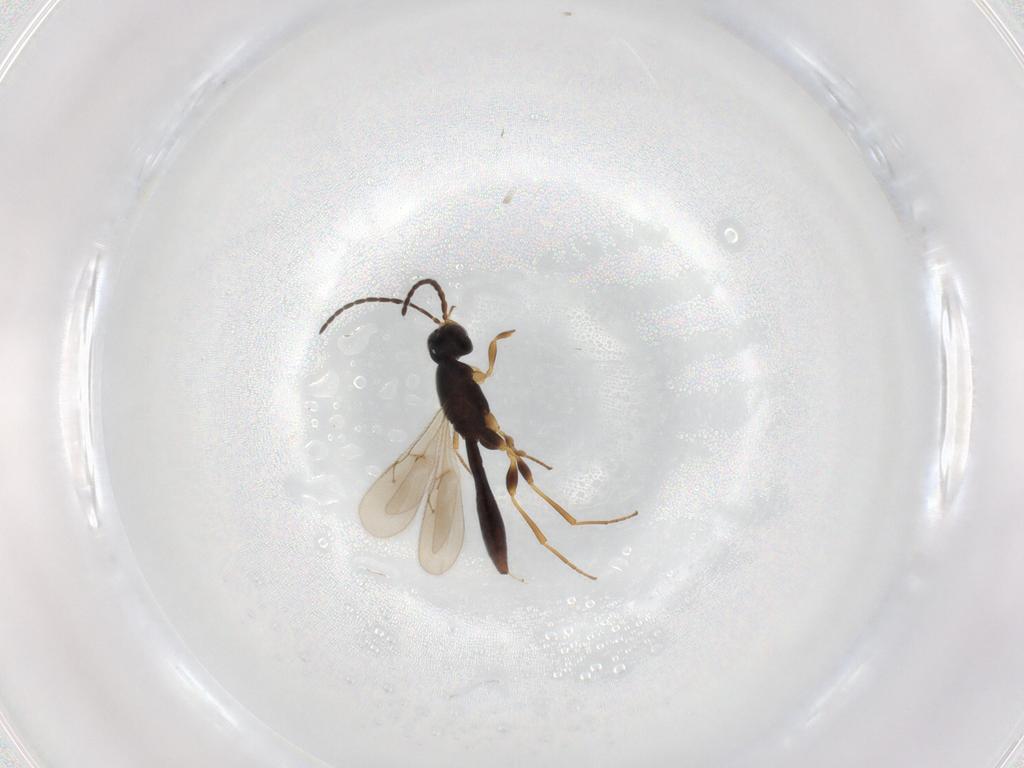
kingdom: Animalia
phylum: Arthropoda
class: Insecta
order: Hymenoptera
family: Scelionidae
